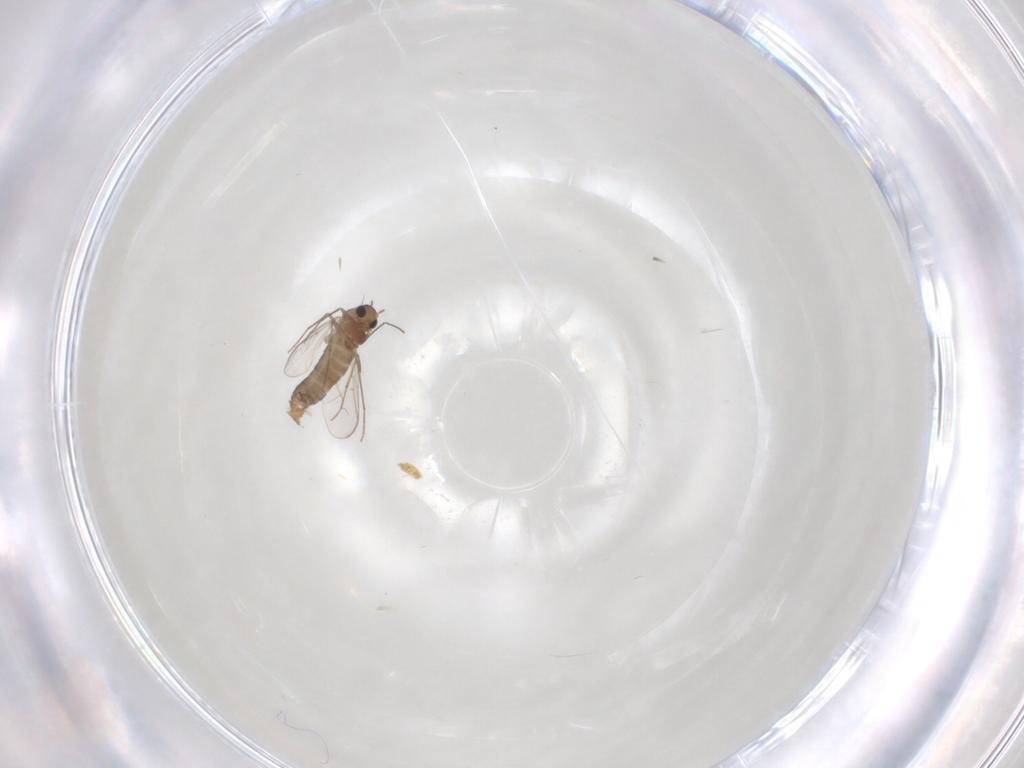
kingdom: Animalia
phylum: Arthropoda
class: Insecta
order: Diptera
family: Chironomidae
